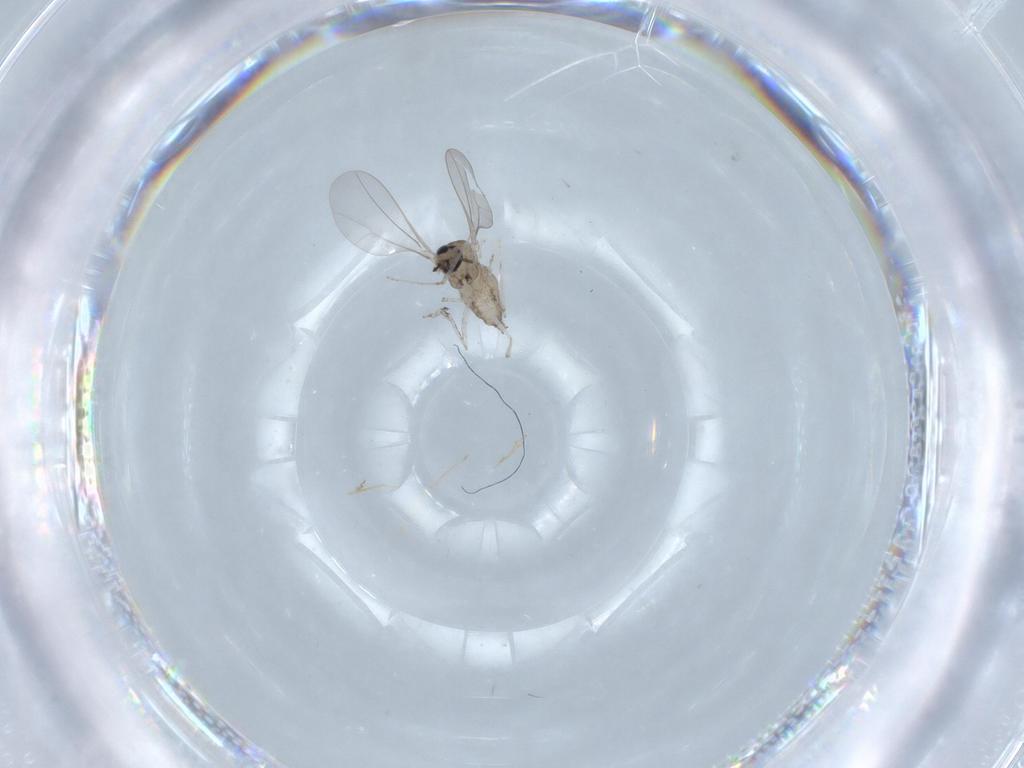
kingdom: Animalia
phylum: Arthropoda
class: Insecta
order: Diptera
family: Cecidomyiidae
